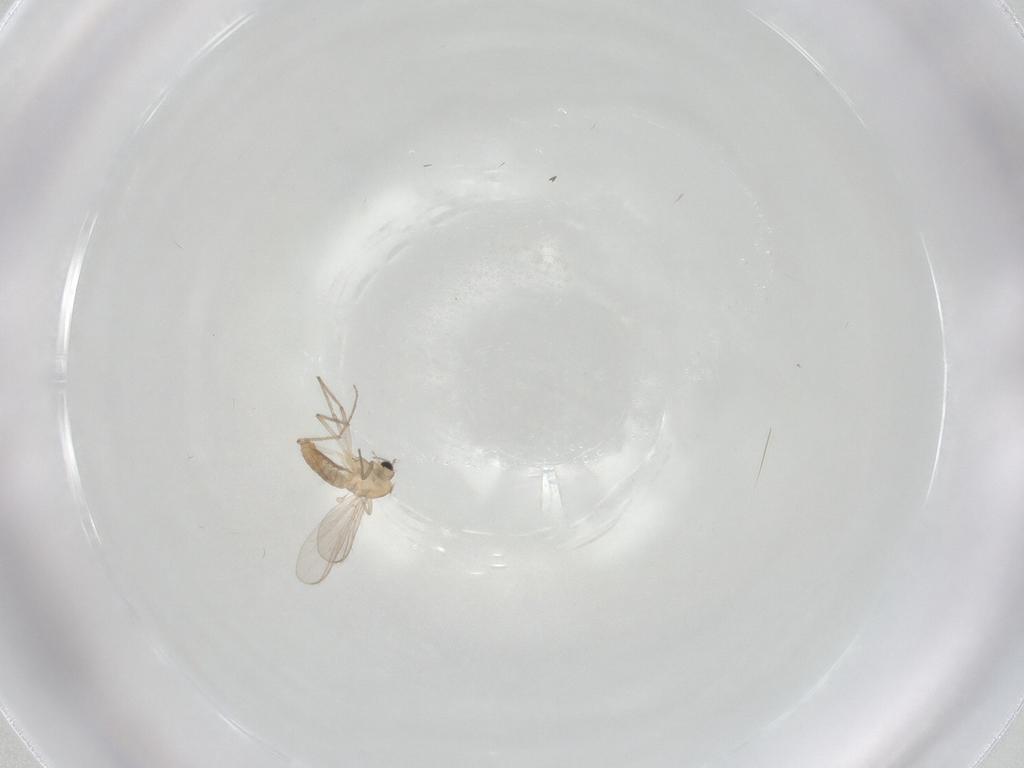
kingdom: Animalia
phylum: Arthropoda
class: Insecta
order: Diptera
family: Chironomidae
